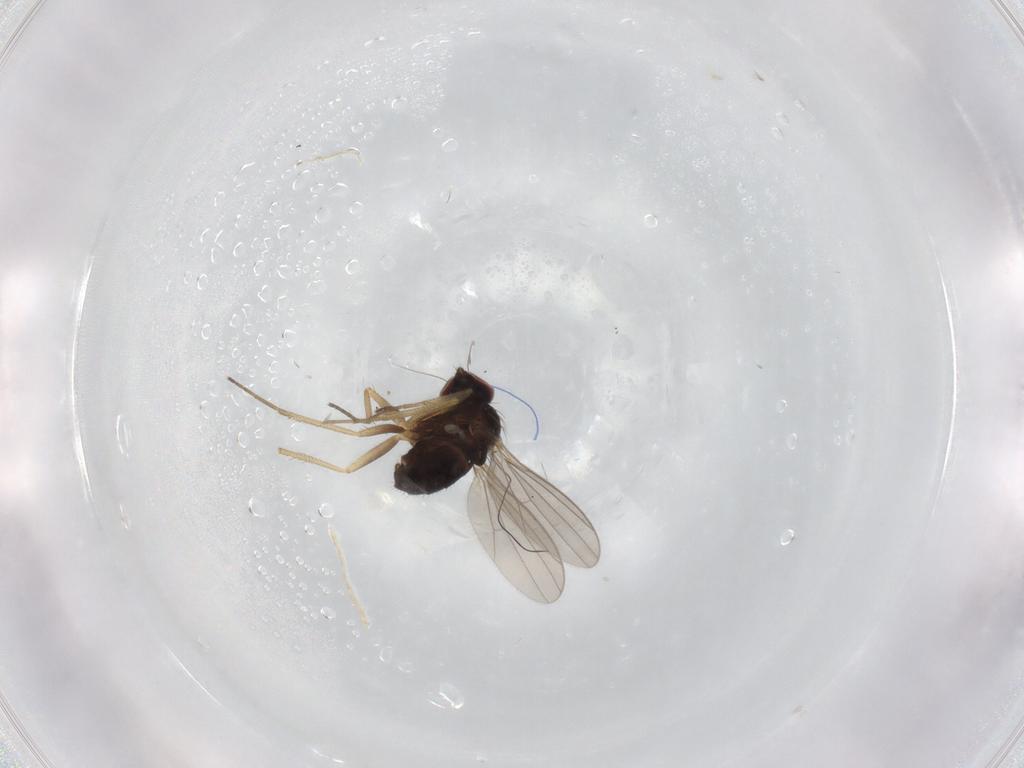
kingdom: Animalia
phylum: Arthropoda
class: Insecta
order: Diptera
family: Dolichopodidae
